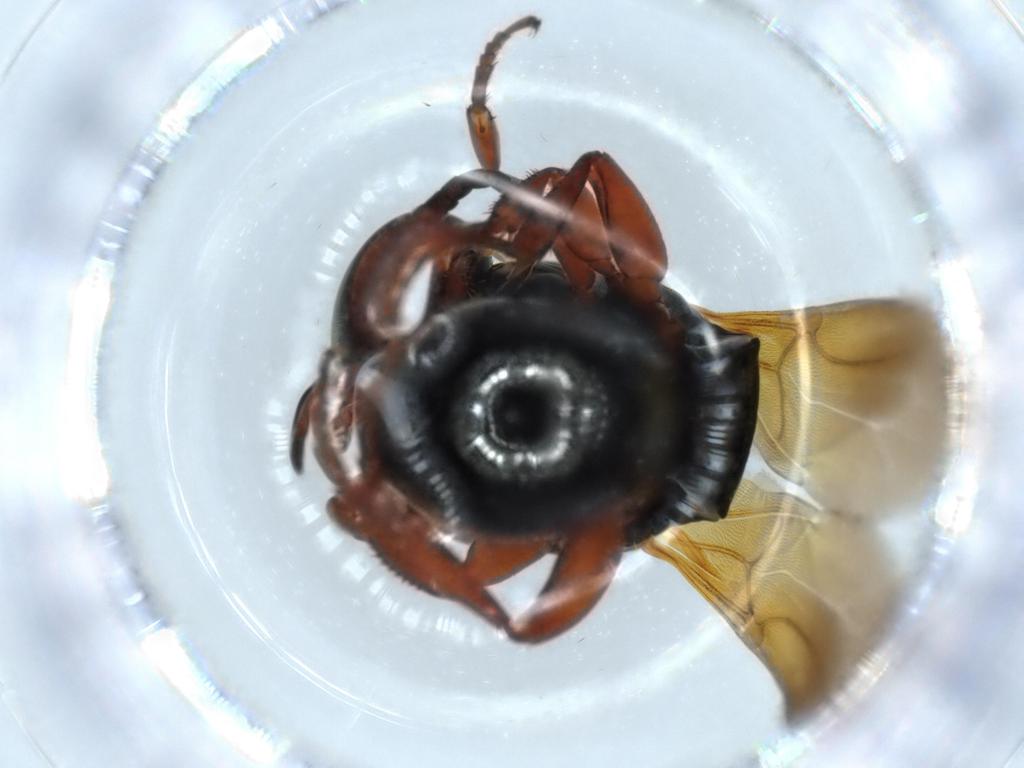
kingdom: Animalia
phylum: Arthropoda
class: Insecta
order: Hymenoptera
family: Bethylidae
